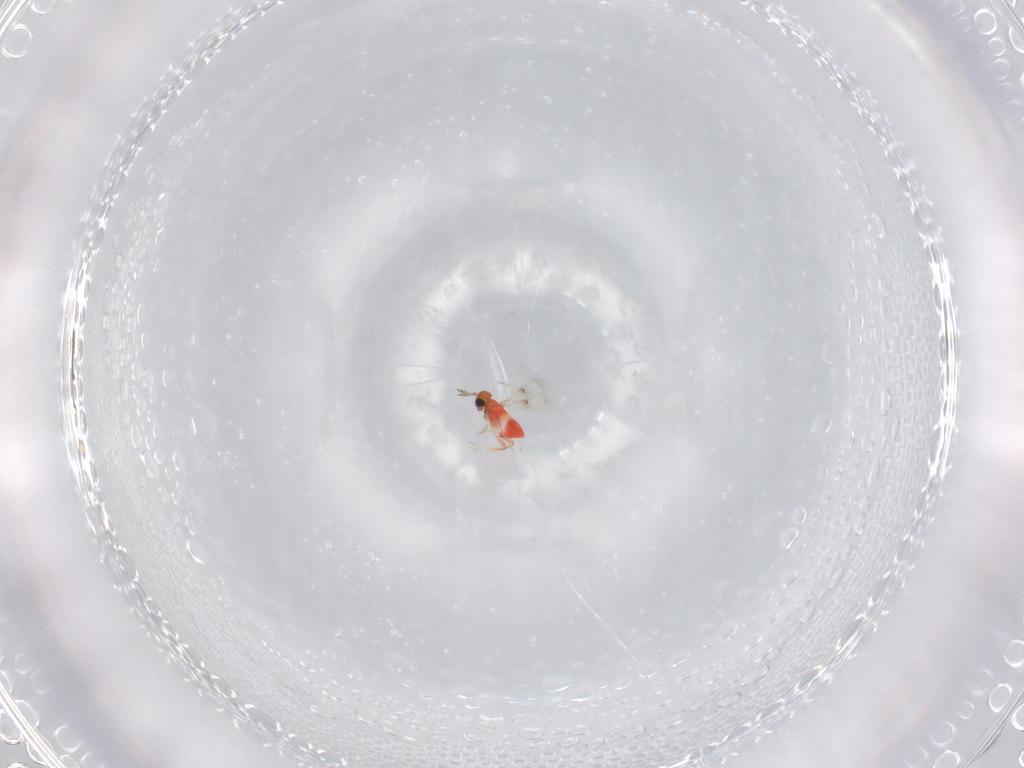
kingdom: Animalia
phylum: Arthropoda
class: Insecta
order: Hymenoptera
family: Trichogrammatidae
